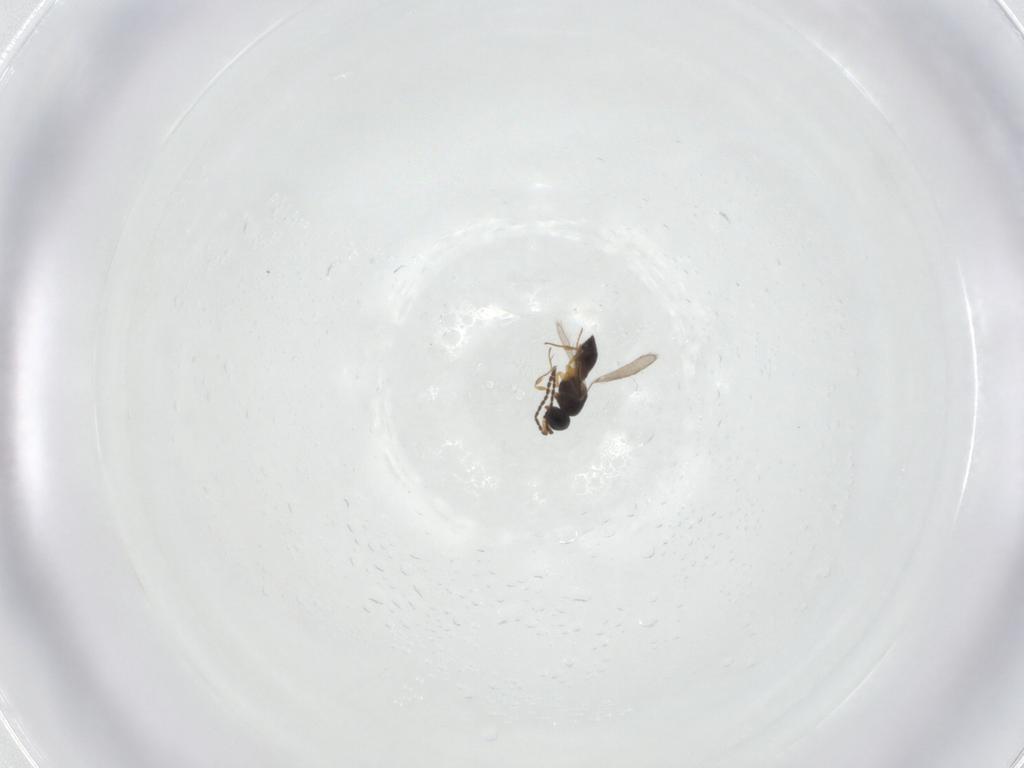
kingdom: Animalia
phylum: Arthropoda
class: Insecta
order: Hymenoptera
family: Scelionidae
